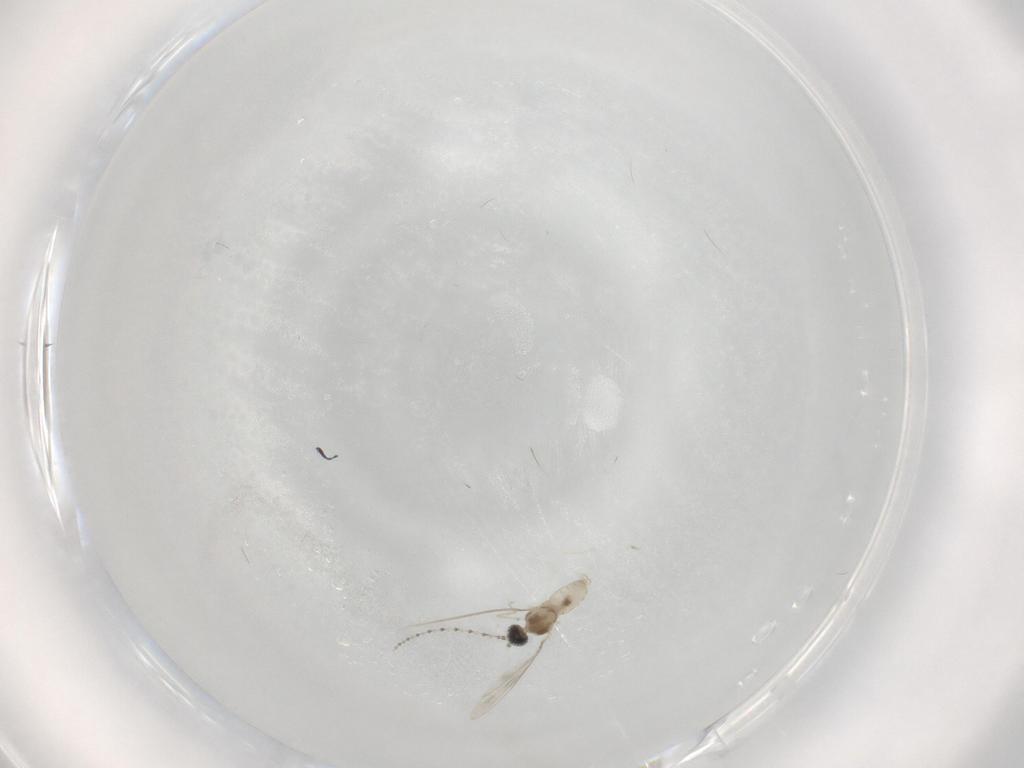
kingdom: Animalia
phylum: Arthropoda
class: Insecta
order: Diptera
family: Cecidomyiidae
